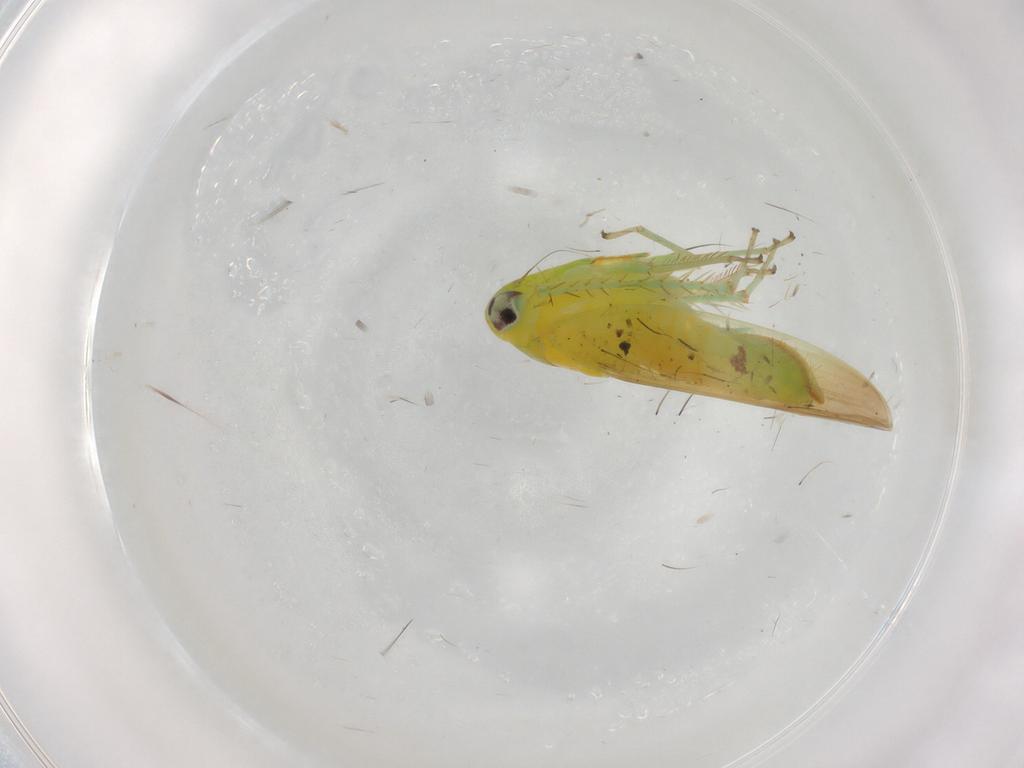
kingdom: Animalia
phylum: Arthropoda
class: Insecta
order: Hemiptera
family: Cicadellidae
